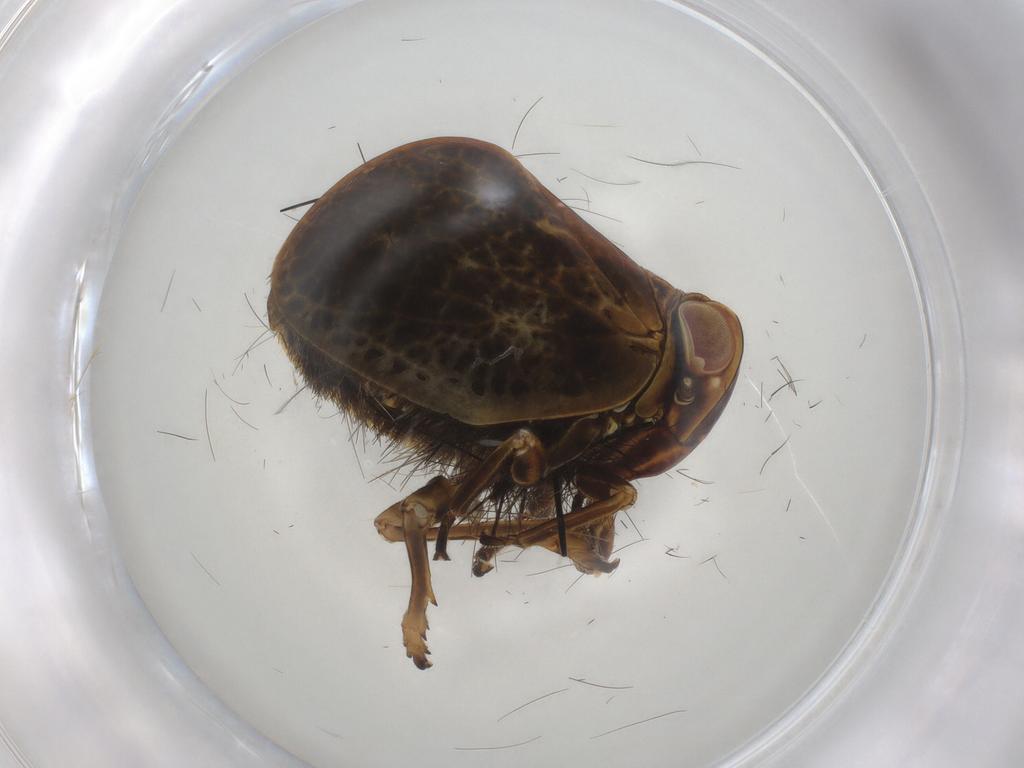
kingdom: Animalia
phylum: Arthropoda
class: Insecta
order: Hemiptera
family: Nogodinidae
